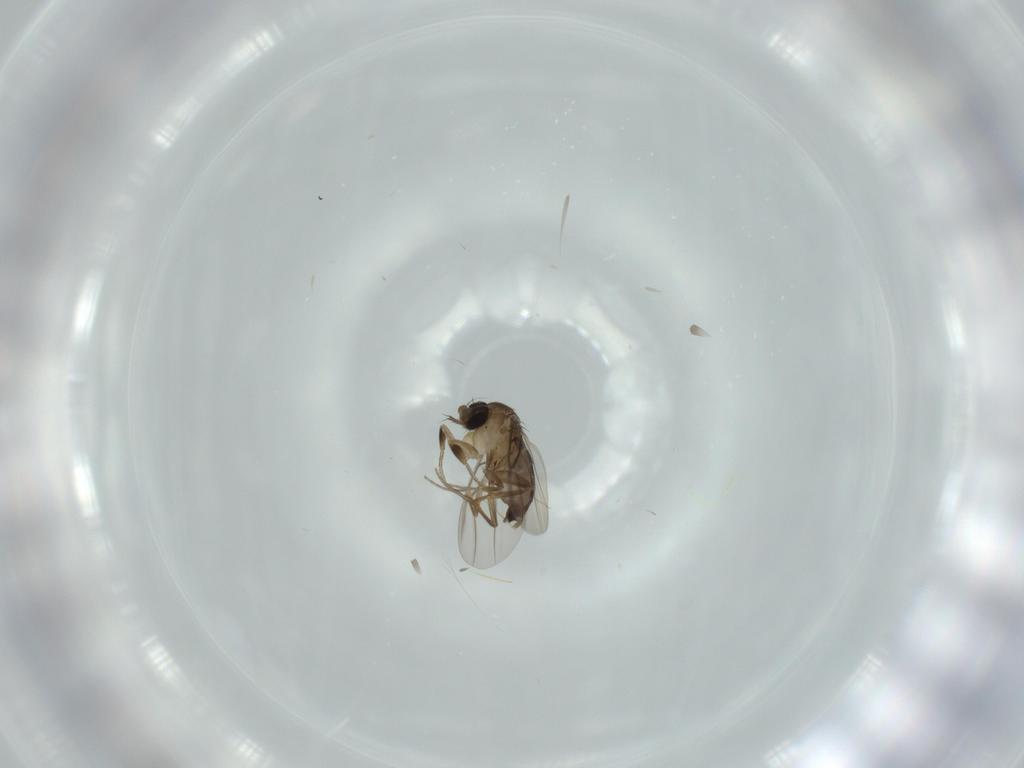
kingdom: Animalia
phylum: Arthropoda
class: Insecta
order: Diptera
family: Phoridae
